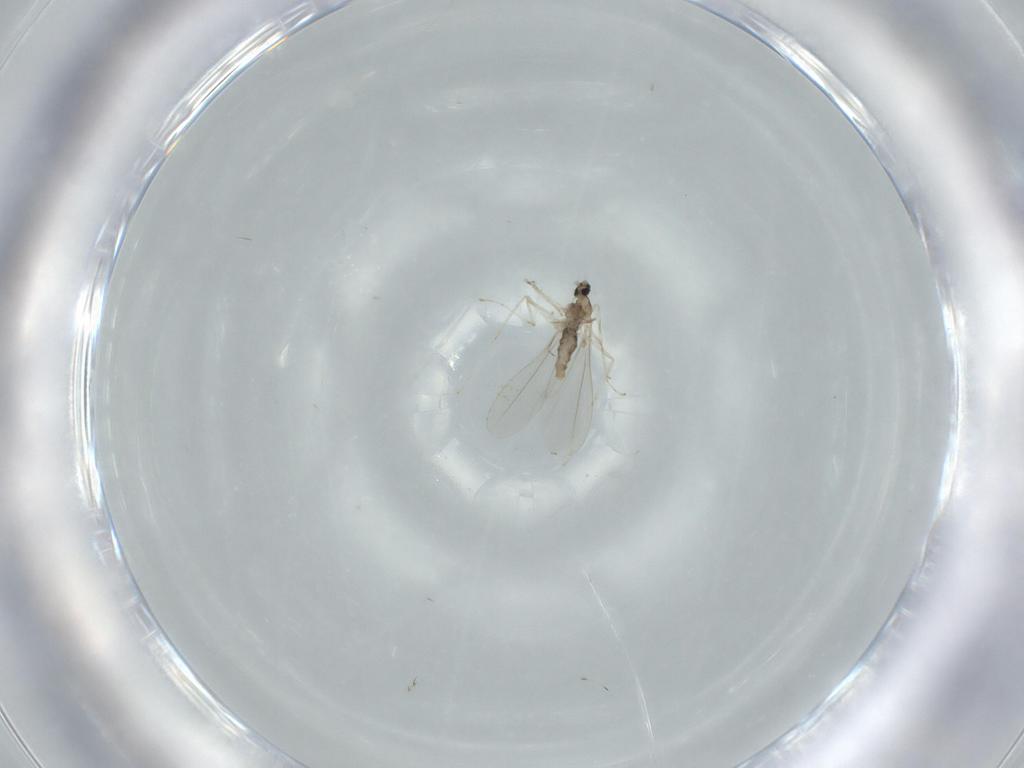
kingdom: Animalia
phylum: Arthropoda
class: Insecta
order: Diptera
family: Cecidomyiidae
